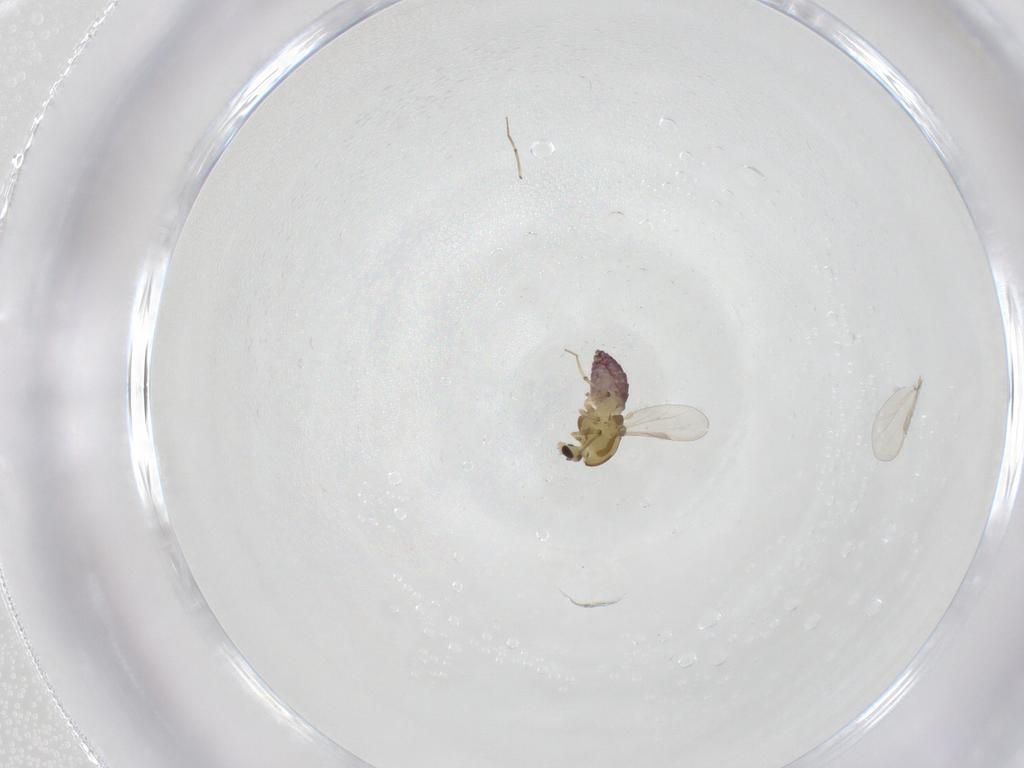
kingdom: Animalia
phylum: Arthropoda
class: Insecta
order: Diptera
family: Chironomidae
